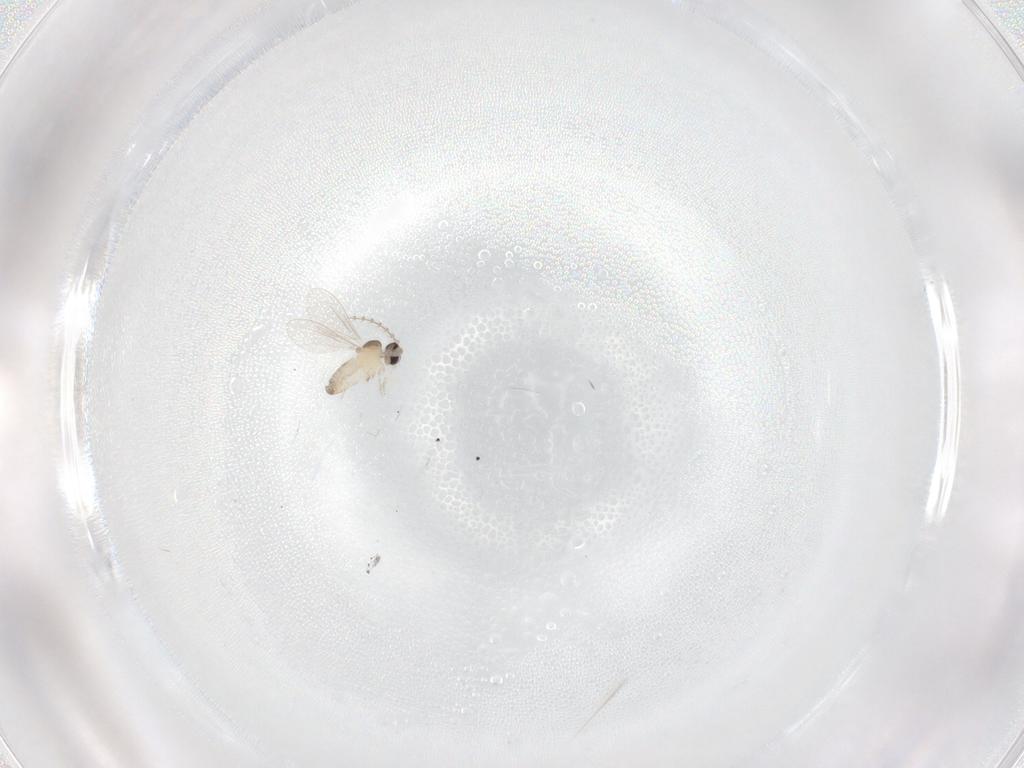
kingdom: Animalia
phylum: Arthropoda
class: Insecta
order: Diptera
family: Cecidomyiidae
